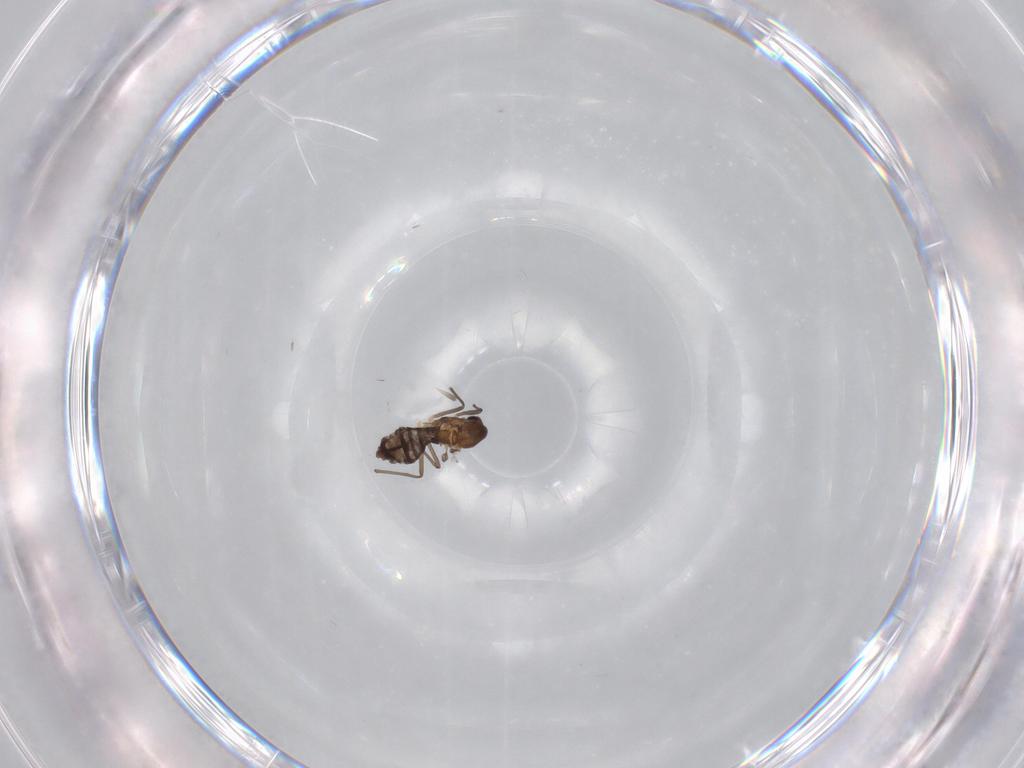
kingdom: Animalia
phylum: Arthropoda
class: Insecta
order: Diptera
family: Chironomidae
